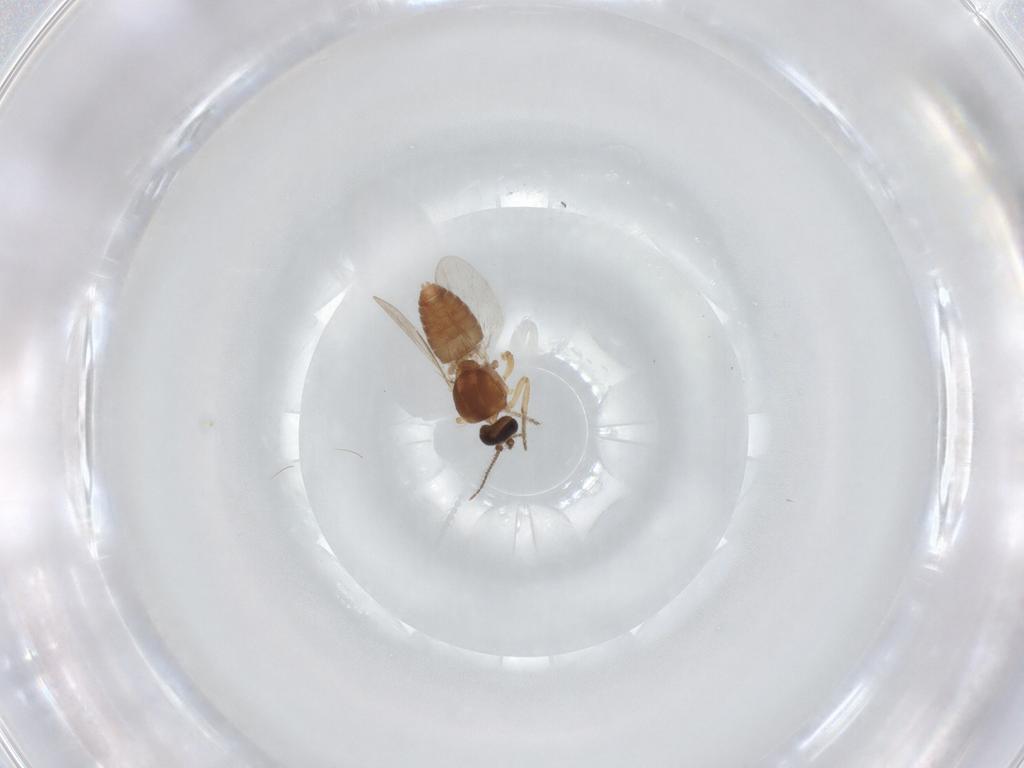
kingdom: Animalia
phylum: Arthropoda
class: Insecta
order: Diptera
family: Ceratopogonidae
